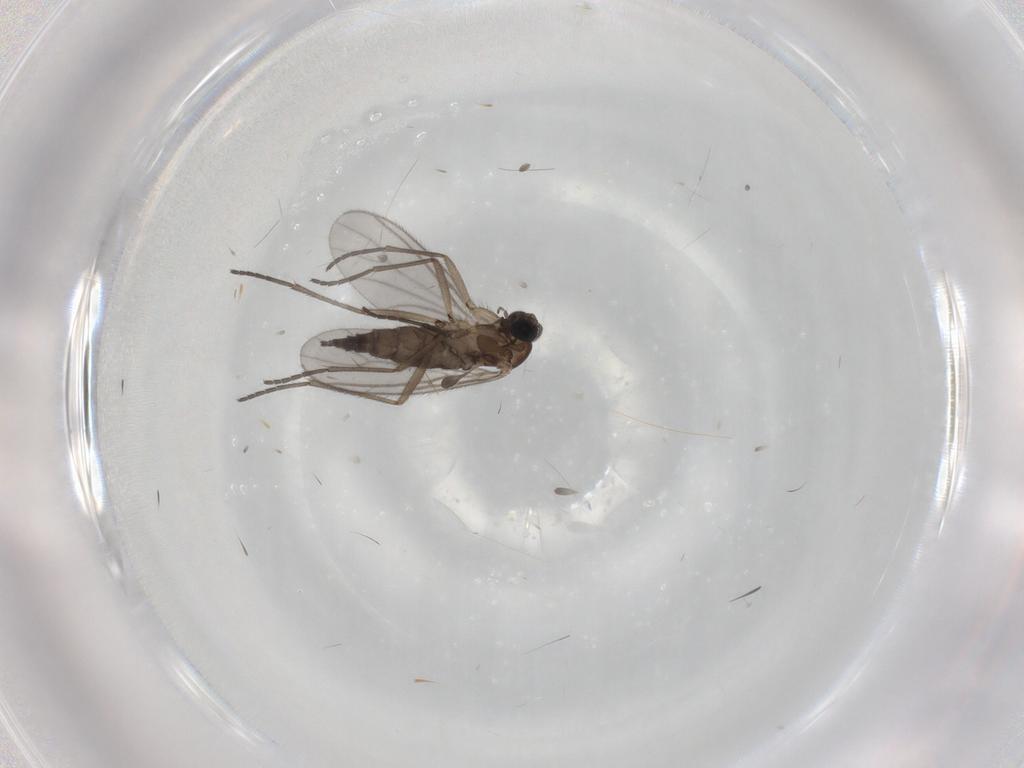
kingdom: Animalia
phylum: Arthropoda
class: Insecta
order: Diptera
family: Sciaridae
